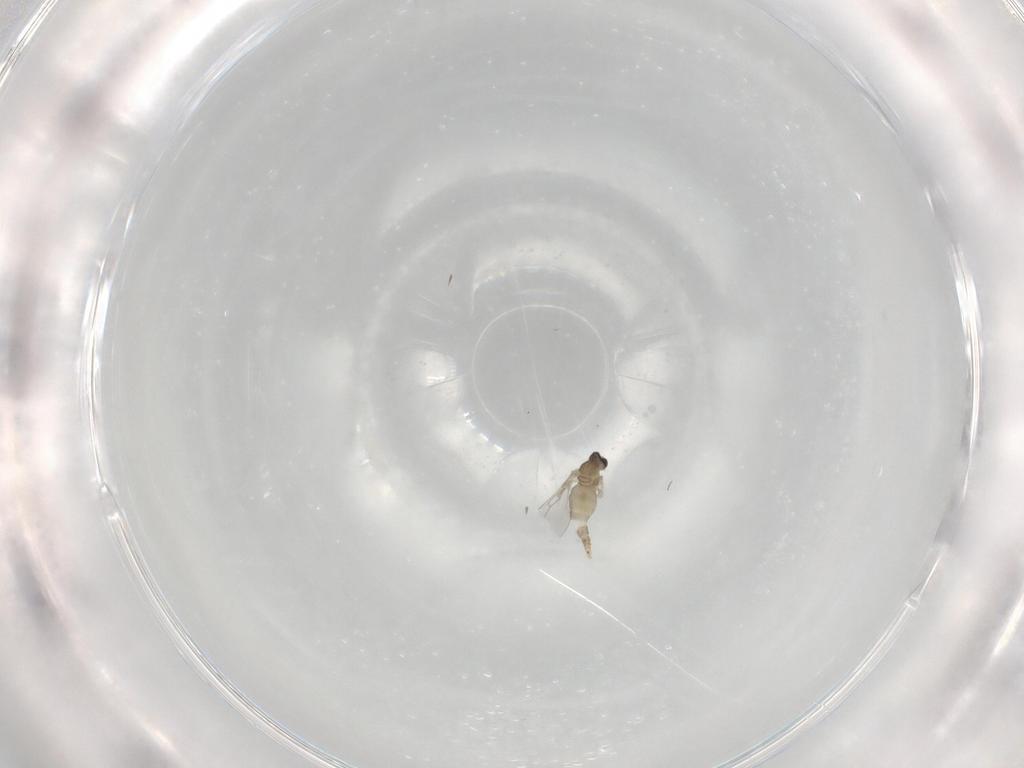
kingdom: Animalia
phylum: Arthropoda
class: Insecta
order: Diptera
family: Cecidomyiidae
